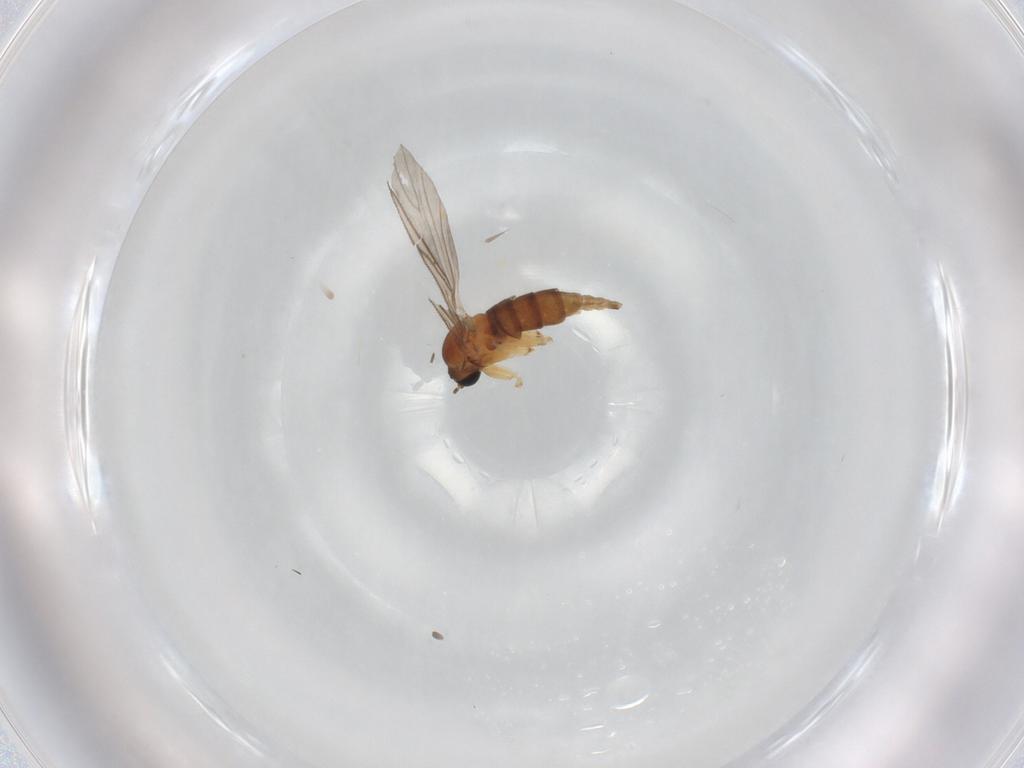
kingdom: Animalia
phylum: Arthropoda
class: Insecta
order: Diptera
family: Sciaridae
